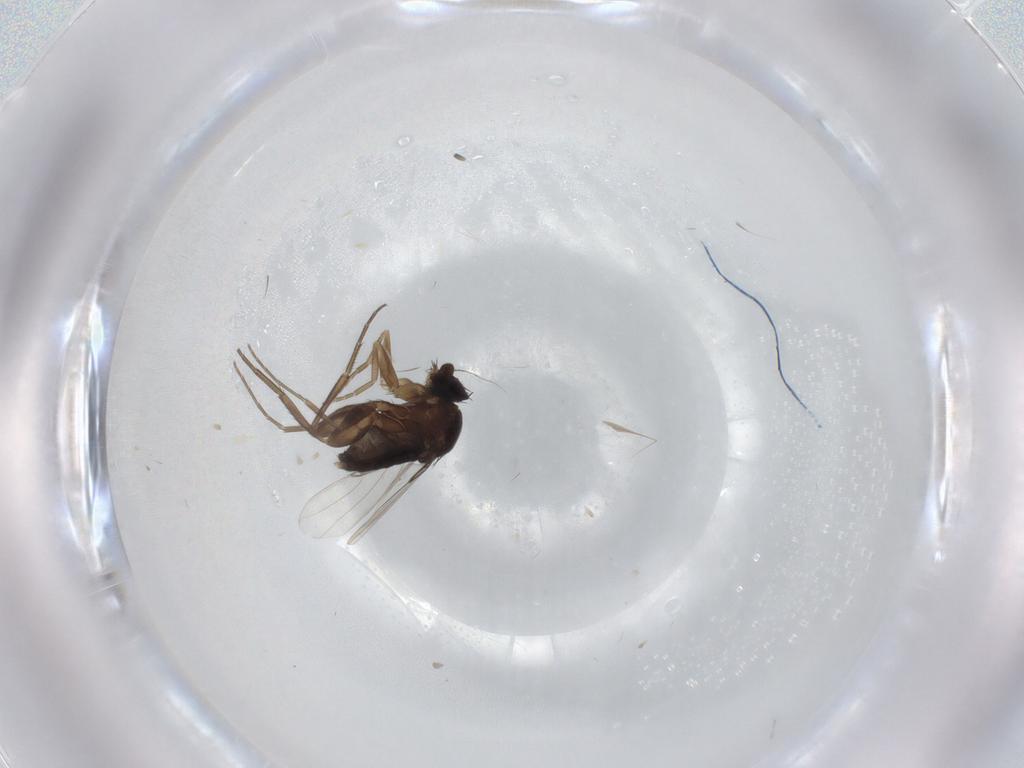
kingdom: Animalia
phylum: Arthropoda
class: Insecta
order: Diptera
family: Phoridae
